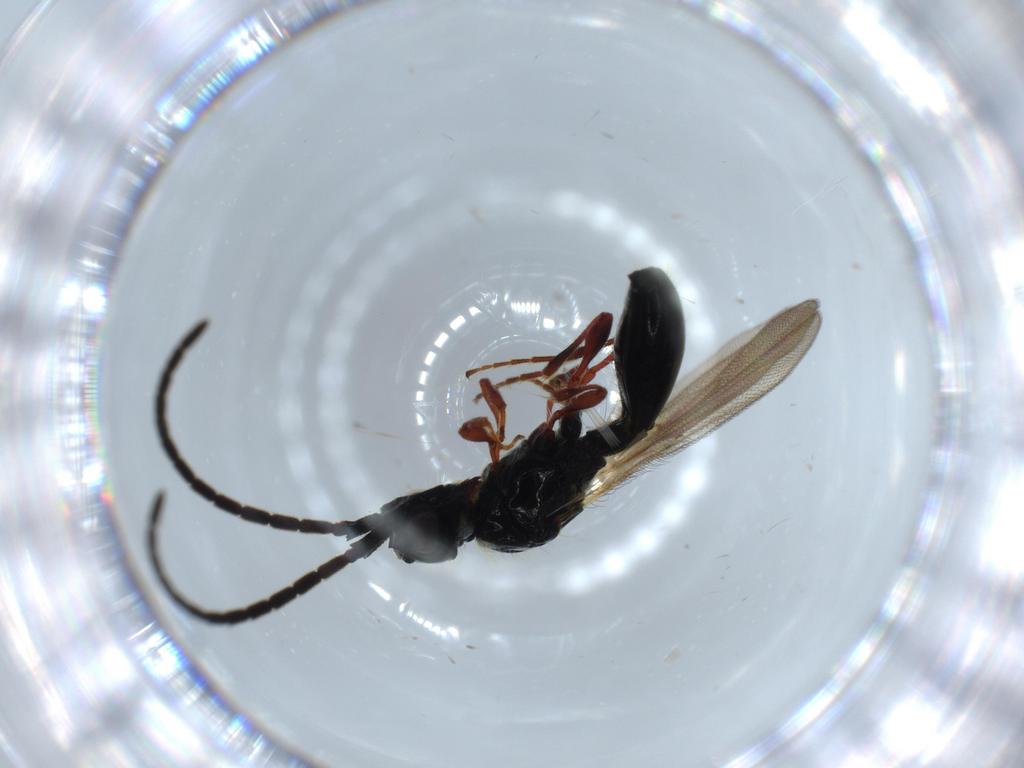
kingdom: Animalia
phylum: Arthropoda
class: Insecta
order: Hymenoptera
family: Diapriidae
